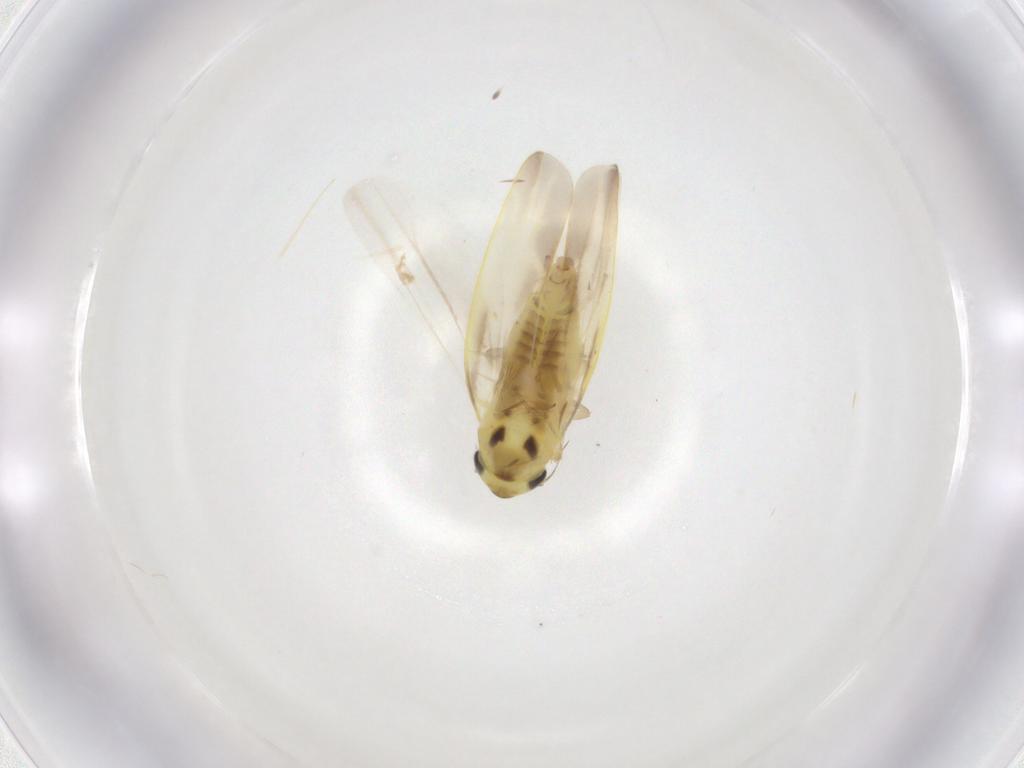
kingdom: Animalia
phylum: Arthropoda
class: Insecta
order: Hemiptera
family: Cicadellidae
